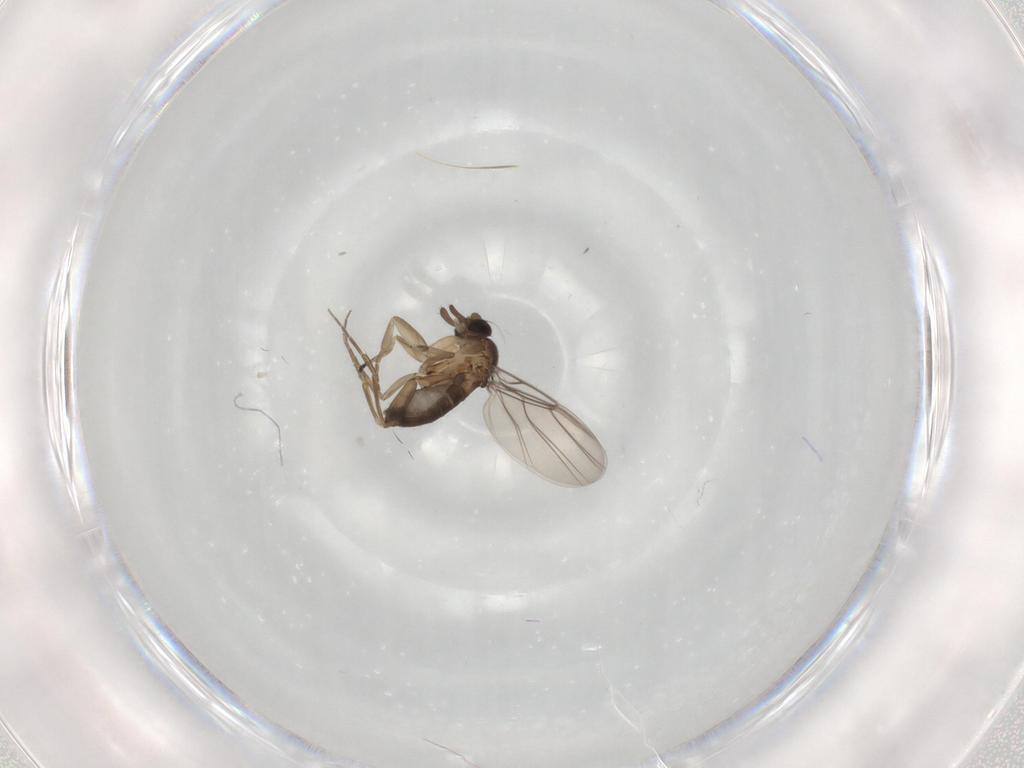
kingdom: Animalia
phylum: Arthropoda
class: Insecta
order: Diptera
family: Phoridae
